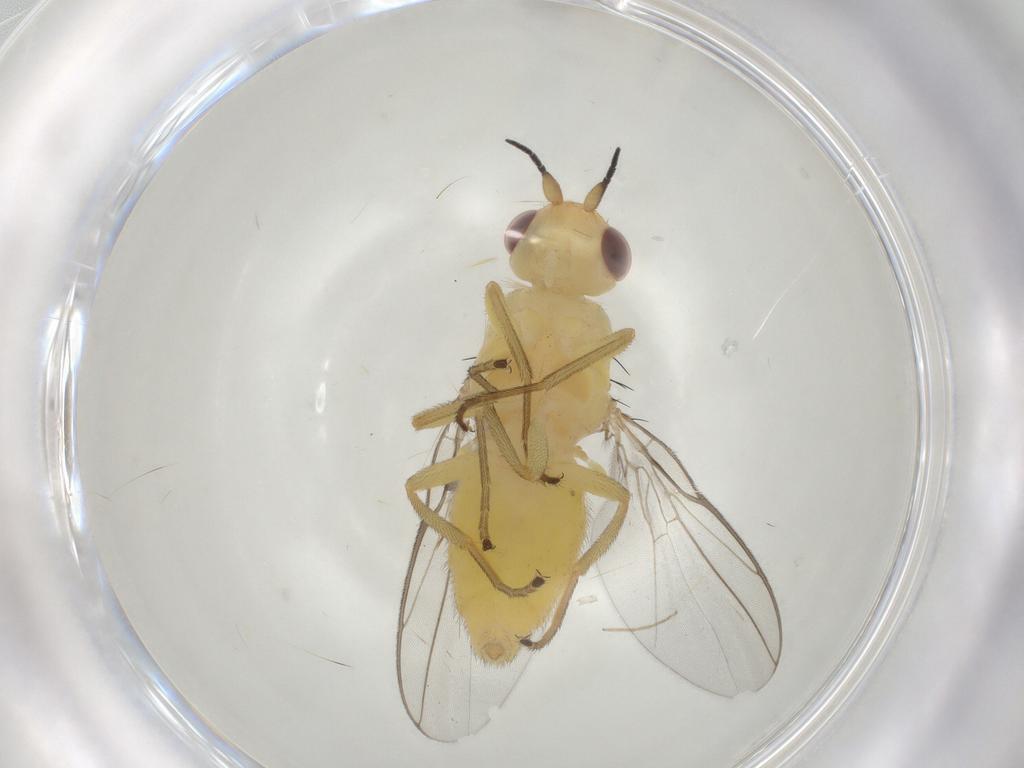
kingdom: Animalia
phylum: Arthropoda
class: Insecta
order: Diptera
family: Chloropidae
